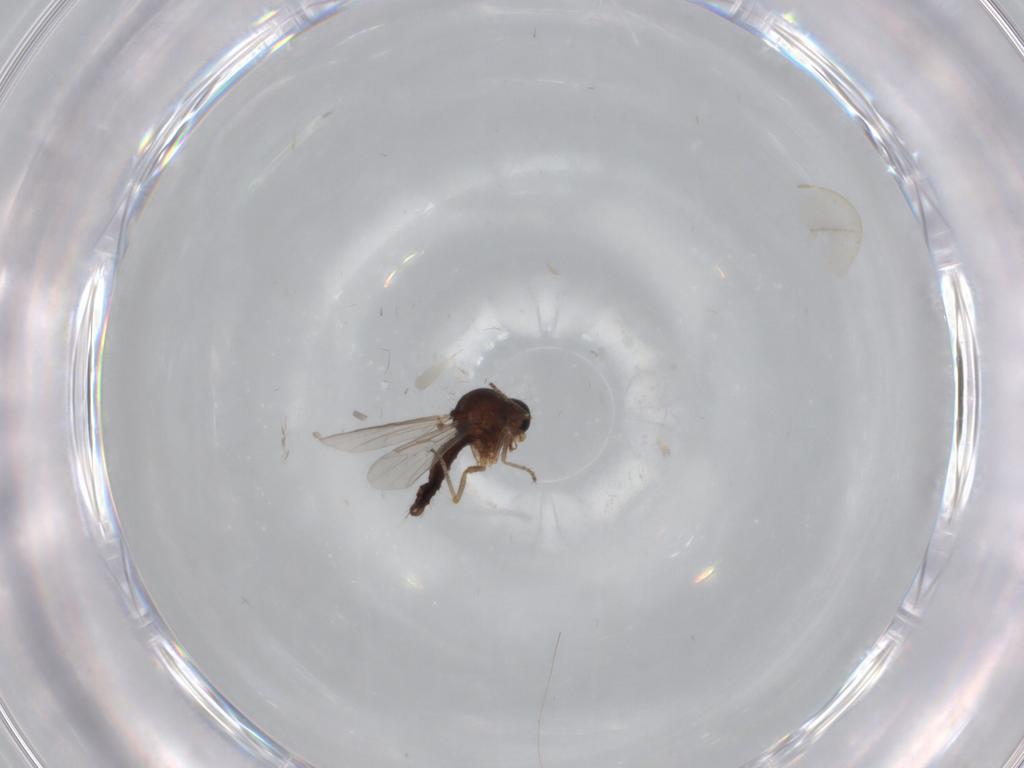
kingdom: Animalia
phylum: Arthropoda
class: Insecta
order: Diptera
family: Ceratopogonidae
